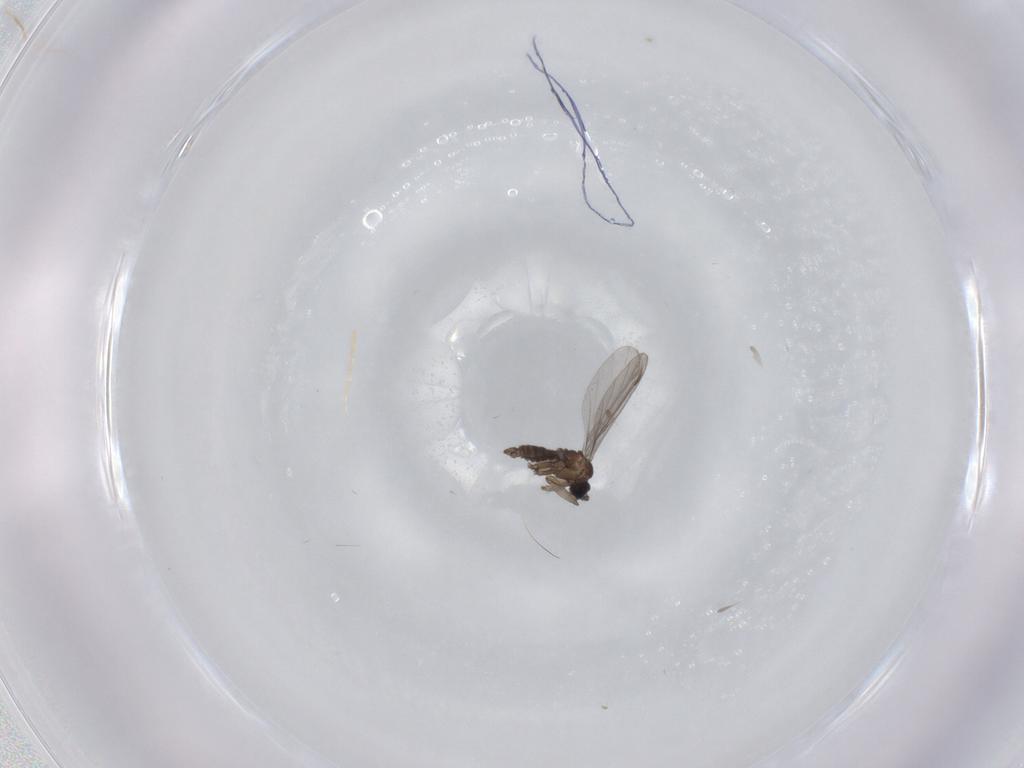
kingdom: Animalia
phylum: Arthropoda
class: Insecta
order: Diptera
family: Sciaridae
